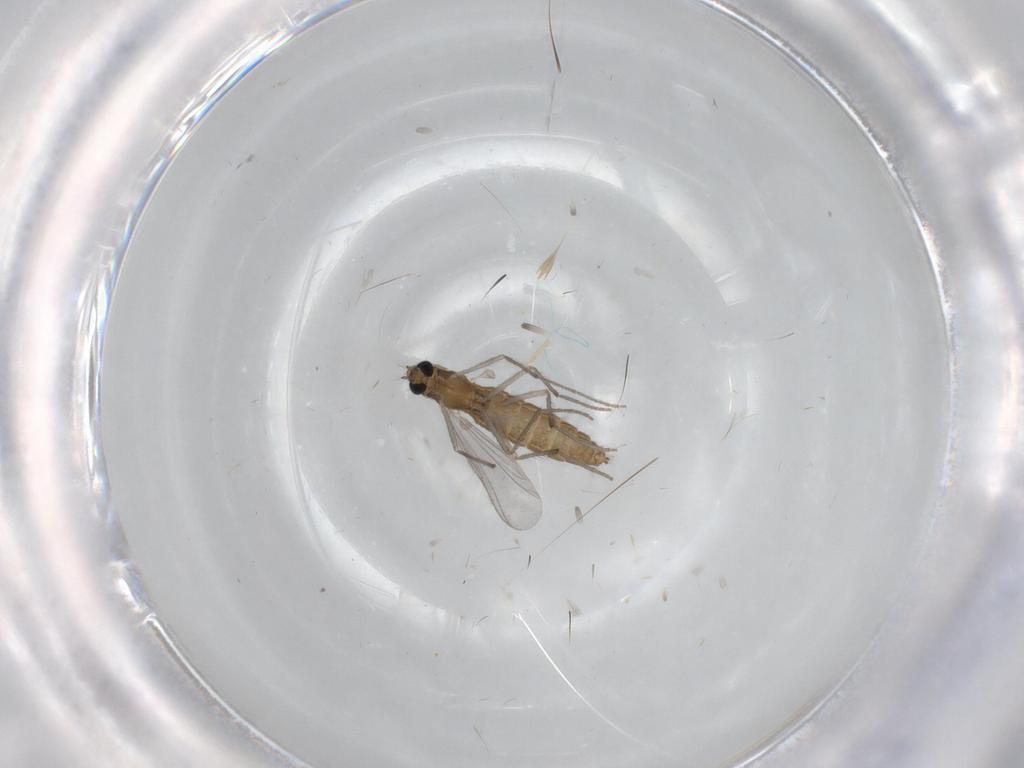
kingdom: Animalia
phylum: Arthropoda
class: Insecta
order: Diptera
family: Chironomidae
